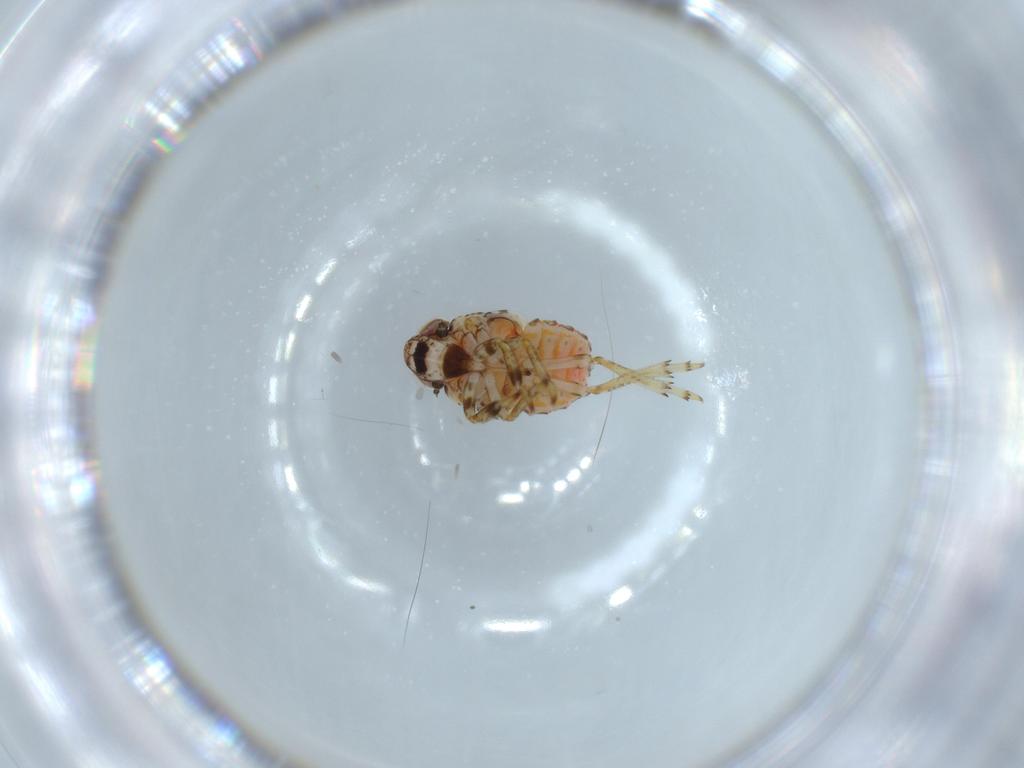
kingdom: Animalia
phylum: Arthropoda
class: Insecta
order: Hemiptera
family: Issidae
